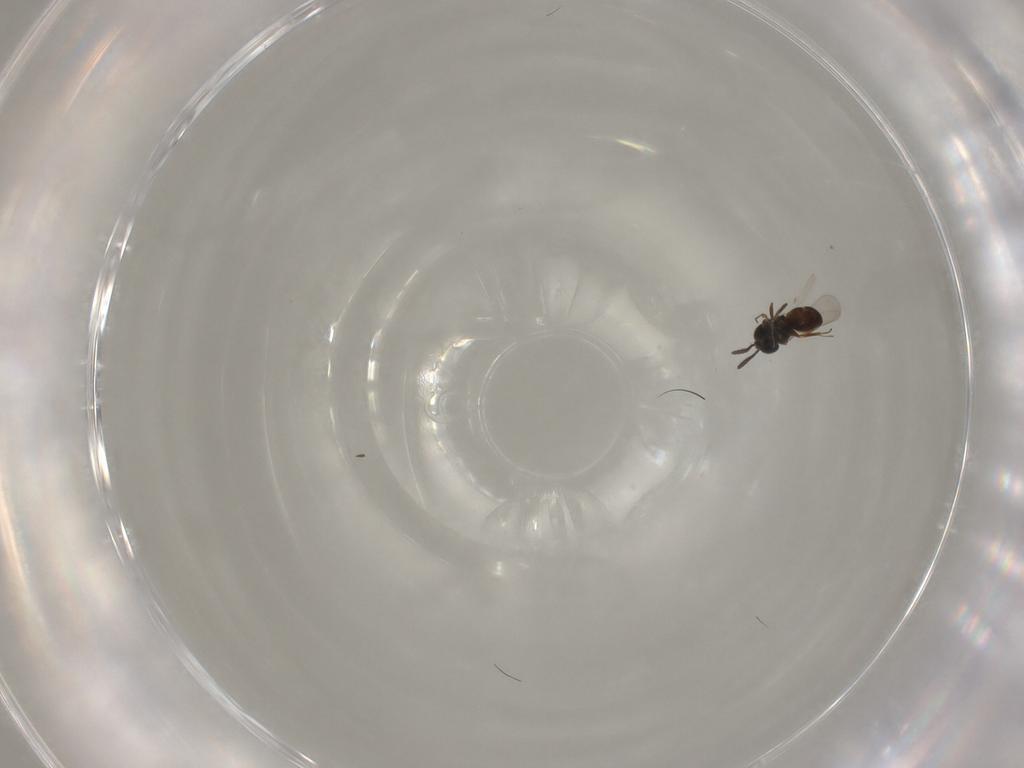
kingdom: Animalia
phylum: Arthropoda
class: Insecta
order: Hymenoptera
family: Scelionidae
